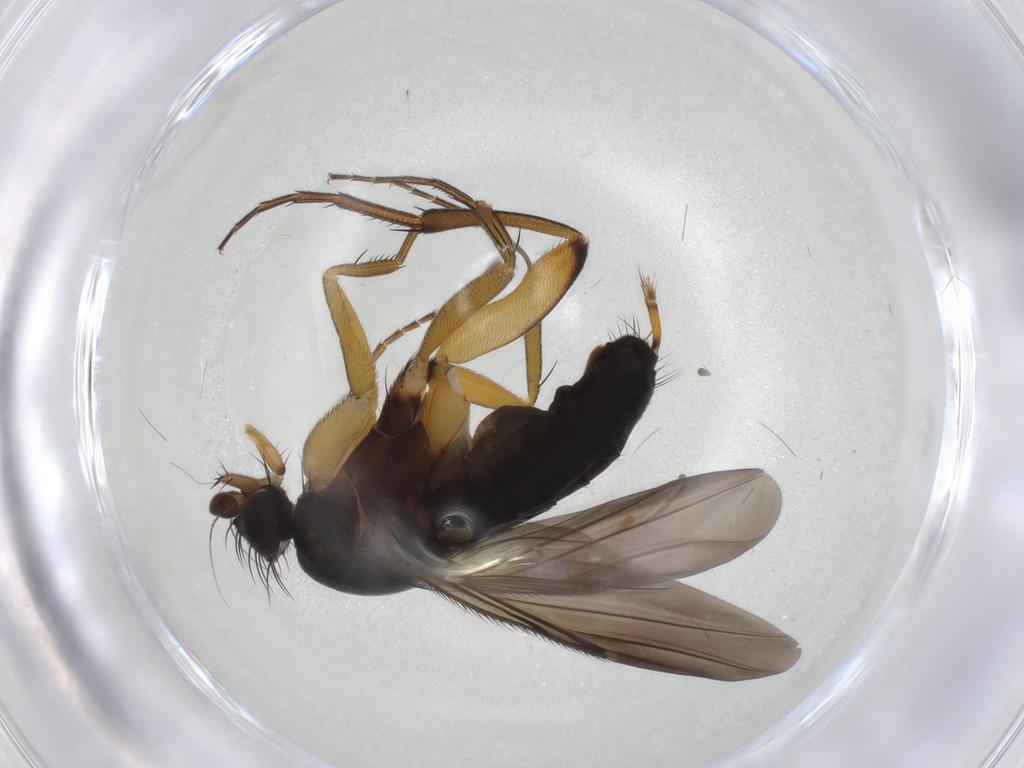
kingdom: Animalia
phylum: Arthropoda
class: Insecta
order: Diptera
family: Phoridae
